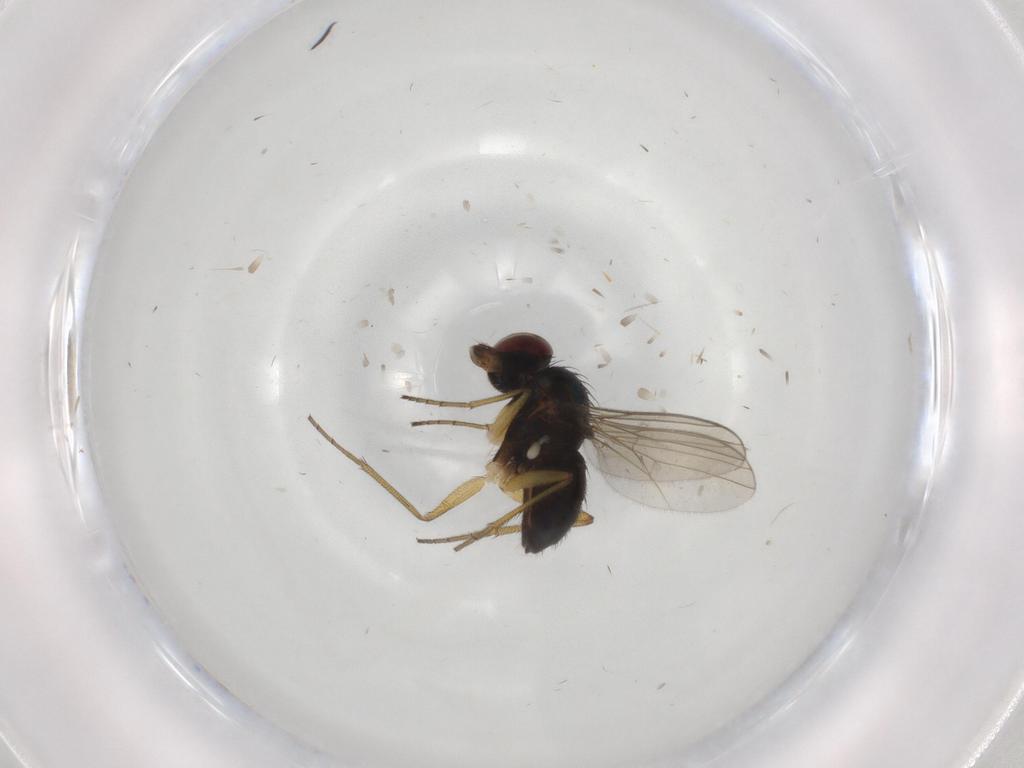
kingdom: Animalia
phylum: Arthropoda
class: Insecta
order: Diptera
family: Dolichopodidae
